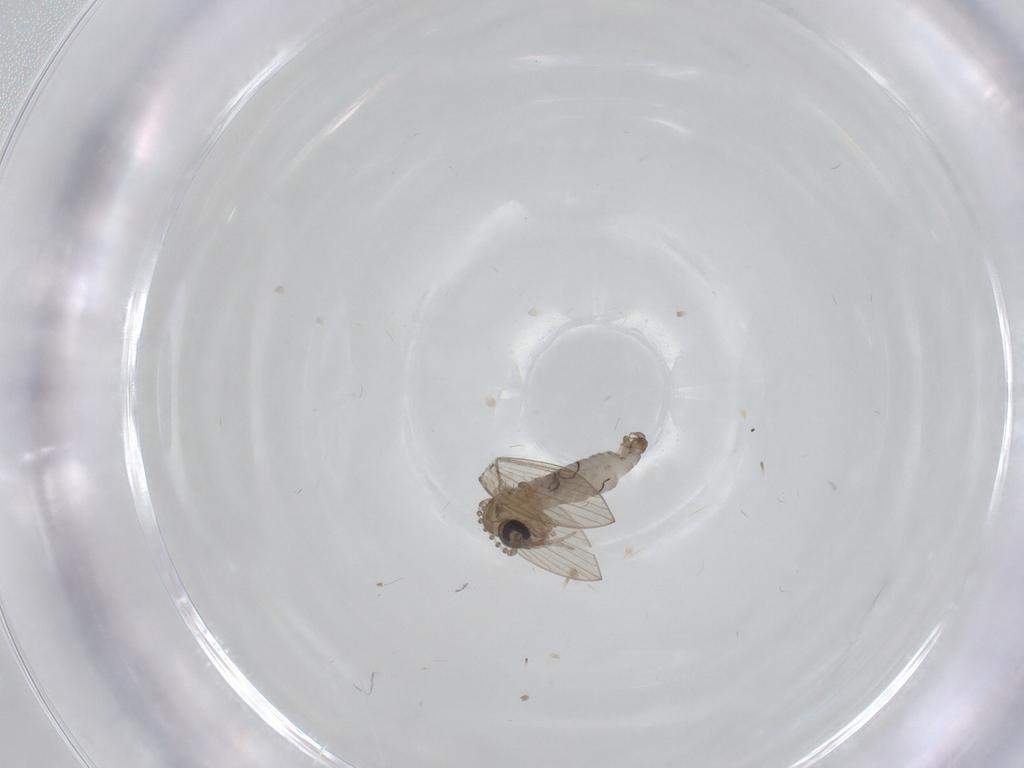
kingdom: Animalia
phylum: Arthropoda
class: Insecta
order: Diptera
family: Psychodidae
